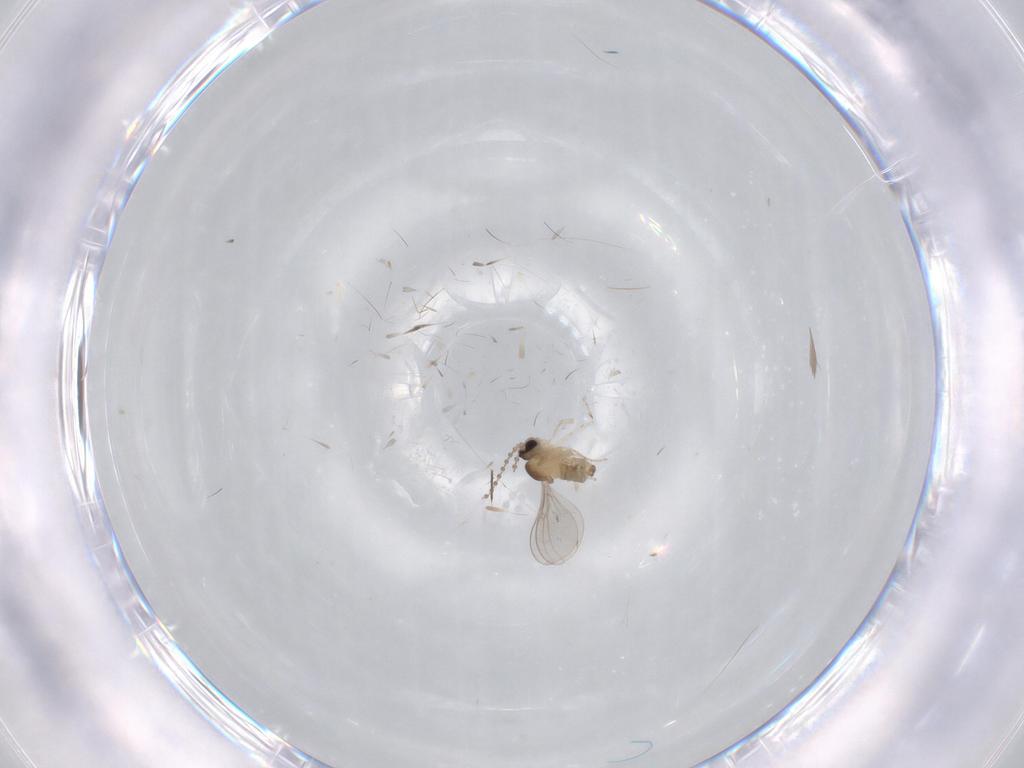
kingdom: Animalia
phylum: Arthropoda
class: Insecta
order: Diptera
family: Cecidomyiidae
